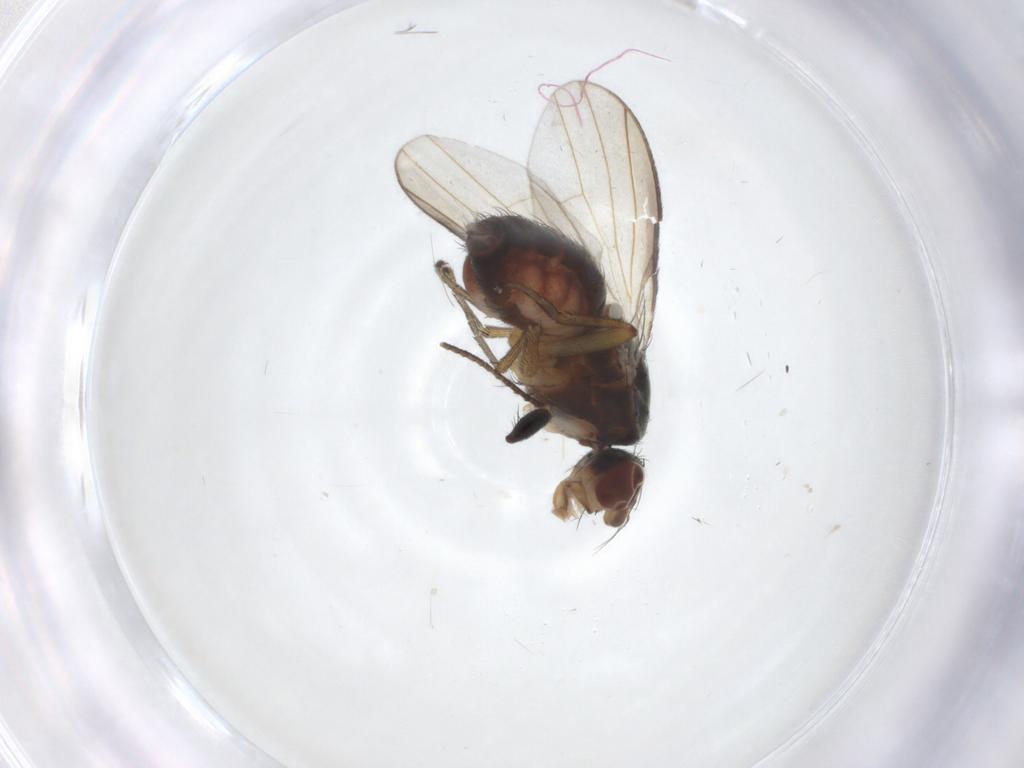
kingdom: Animalia
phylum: Arthropoda
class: Insecta
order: Diptera
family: Heleomyzidae
